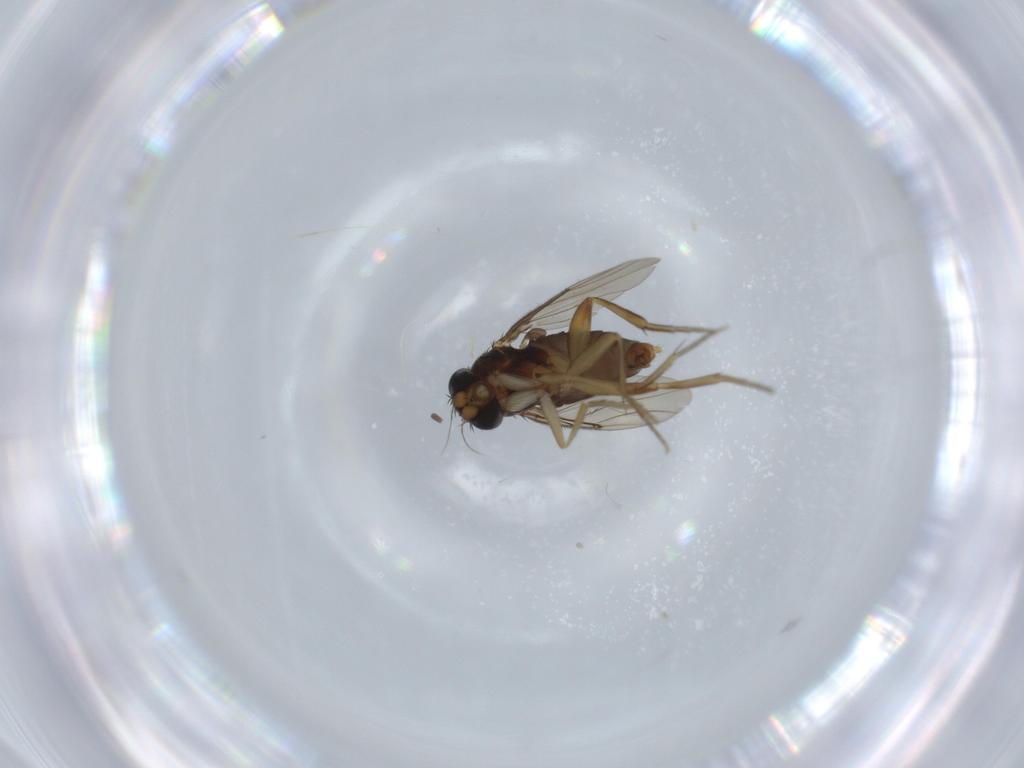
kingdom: Animalia
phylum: Arthropoda
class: Insecta
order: Diptera
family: Phoridae
